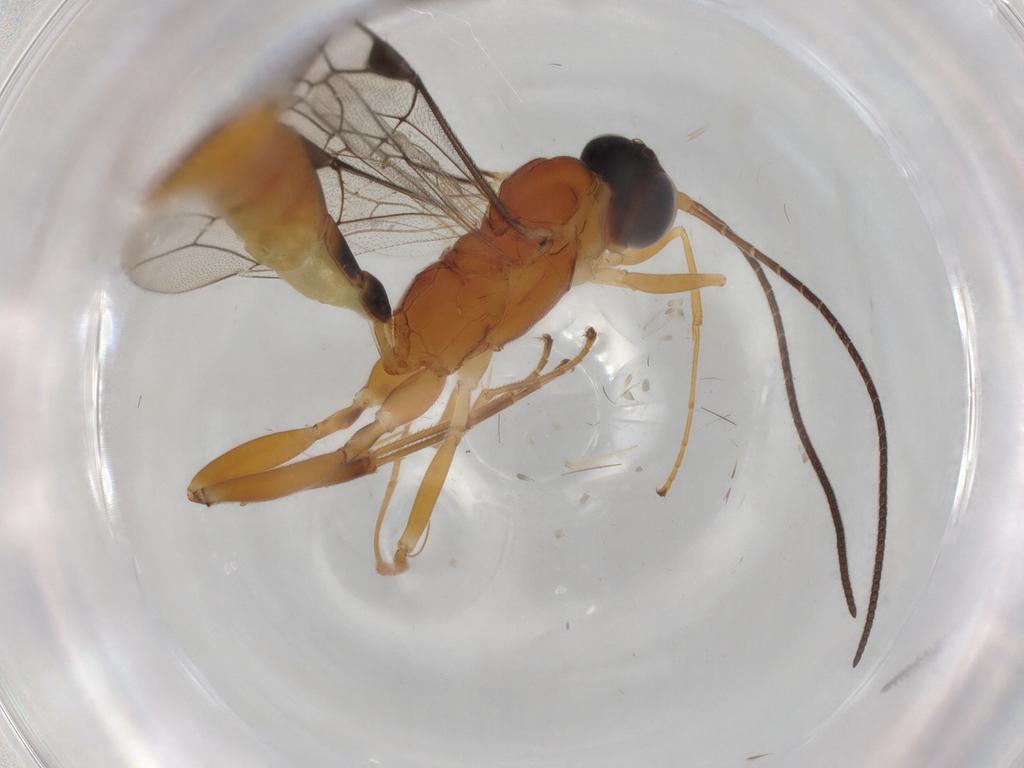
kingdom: Animalia
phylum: Arthropoda
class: Insecta
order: Hymenoptera
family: Ichneumonidae
